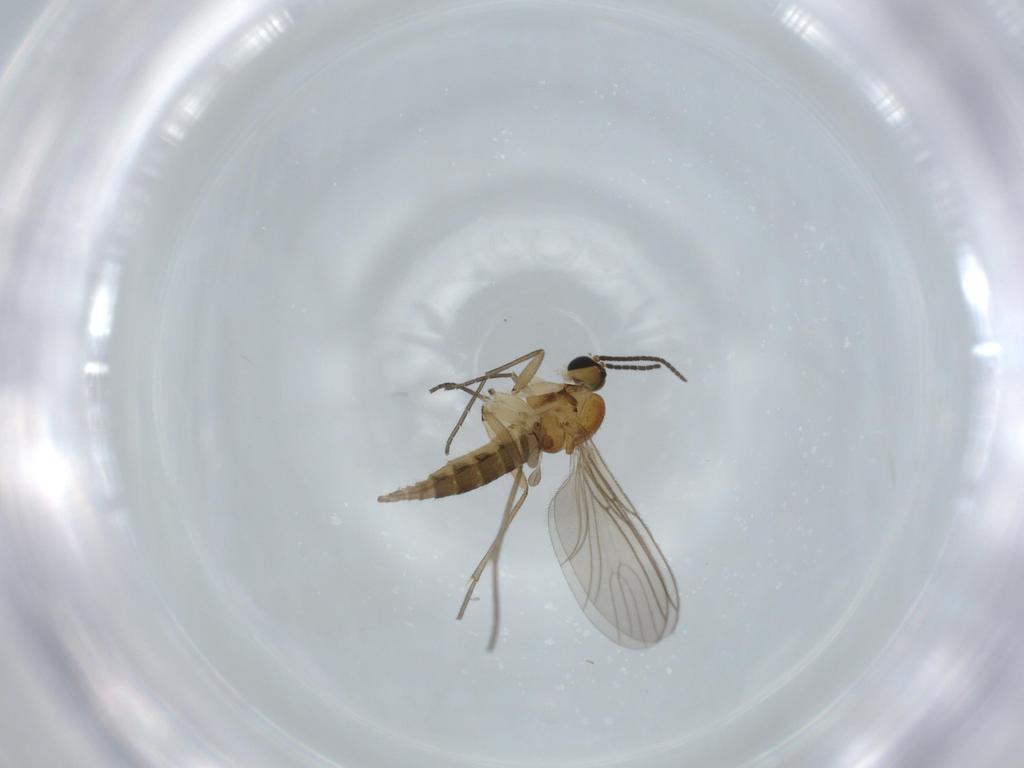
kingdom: Animalia
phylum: Arthropoda
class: Insecta
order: Diptera
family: Sciaridae
